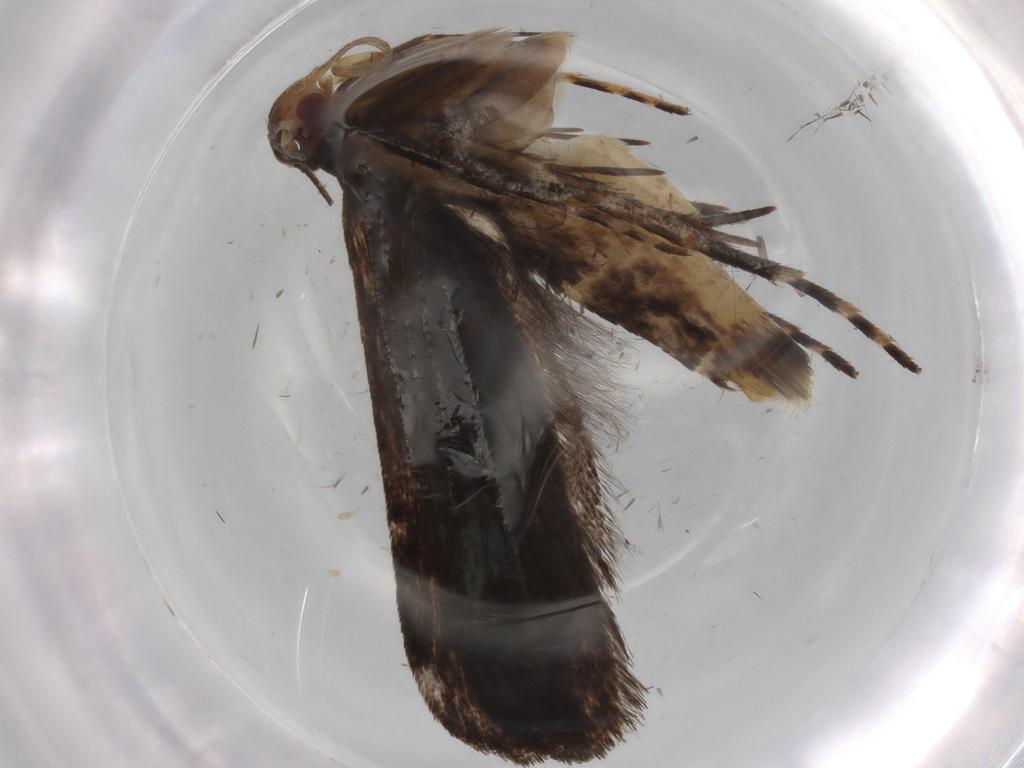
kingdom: Animalia
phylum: Arthropoda
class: Insecta
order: Lepidoptera
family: Gelechiidae
